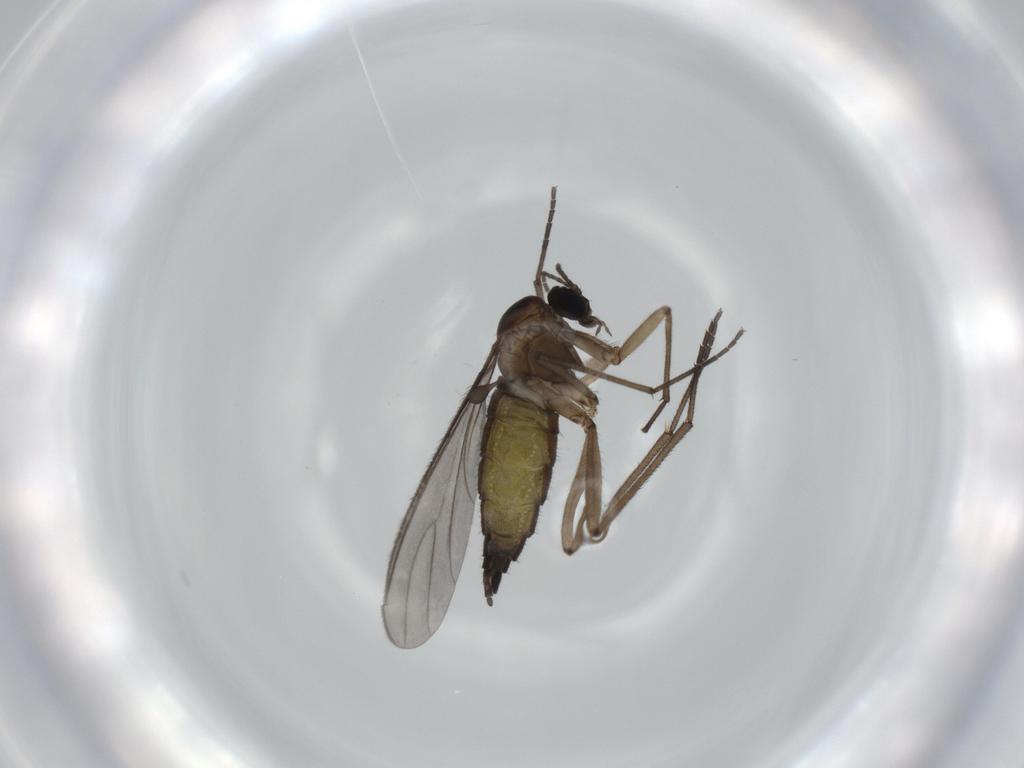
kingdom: Animalia
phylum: Arthropoda
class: Insecta
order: Diptera
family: Sciaridae
